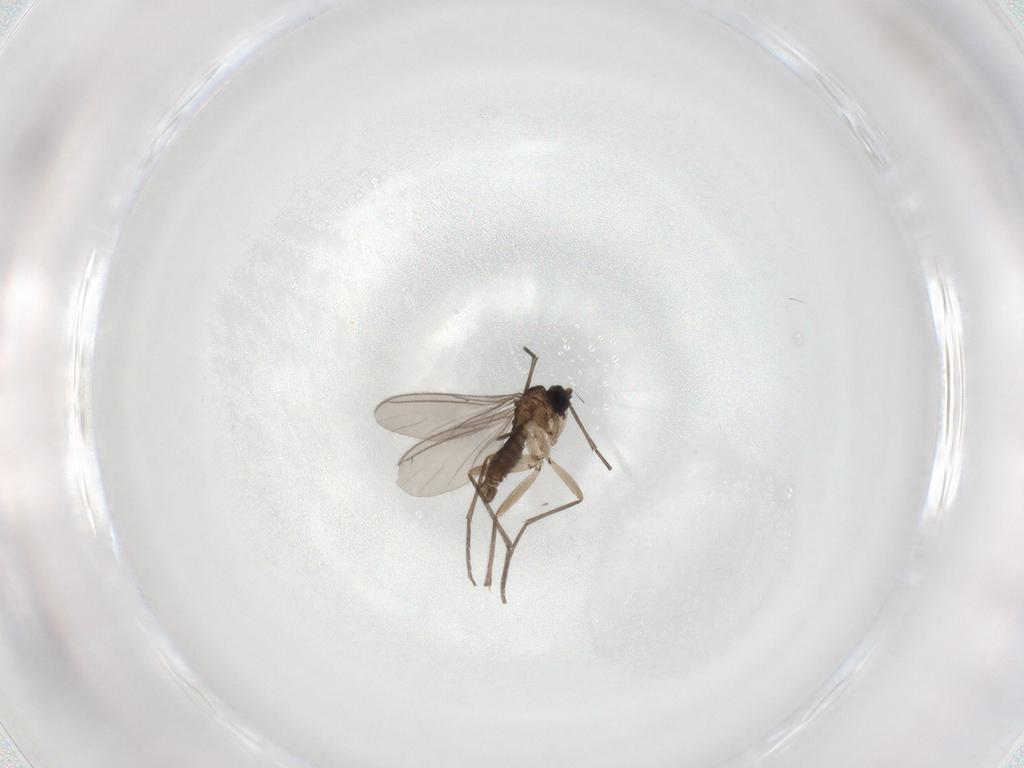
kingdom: Animalia
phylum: Arthropoda
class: Insecta
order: Diptera
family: Sciaridae
